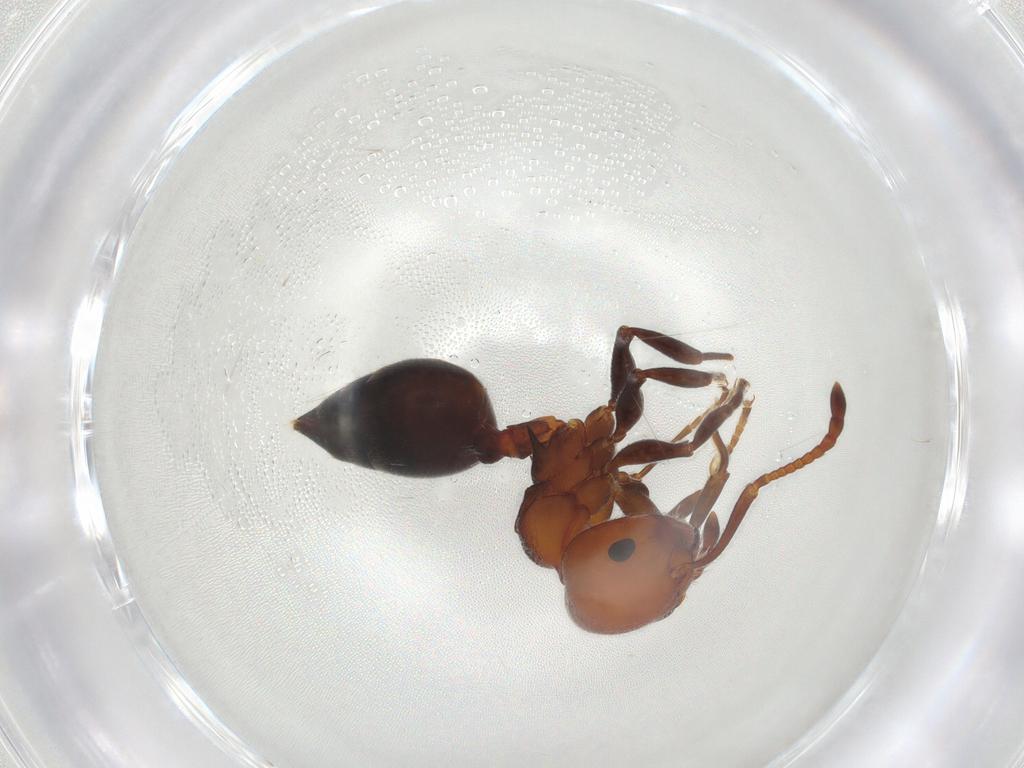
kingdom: Animalia
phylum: Arthropoda
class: Insecta
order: Hymenoptera
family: Formicidae
